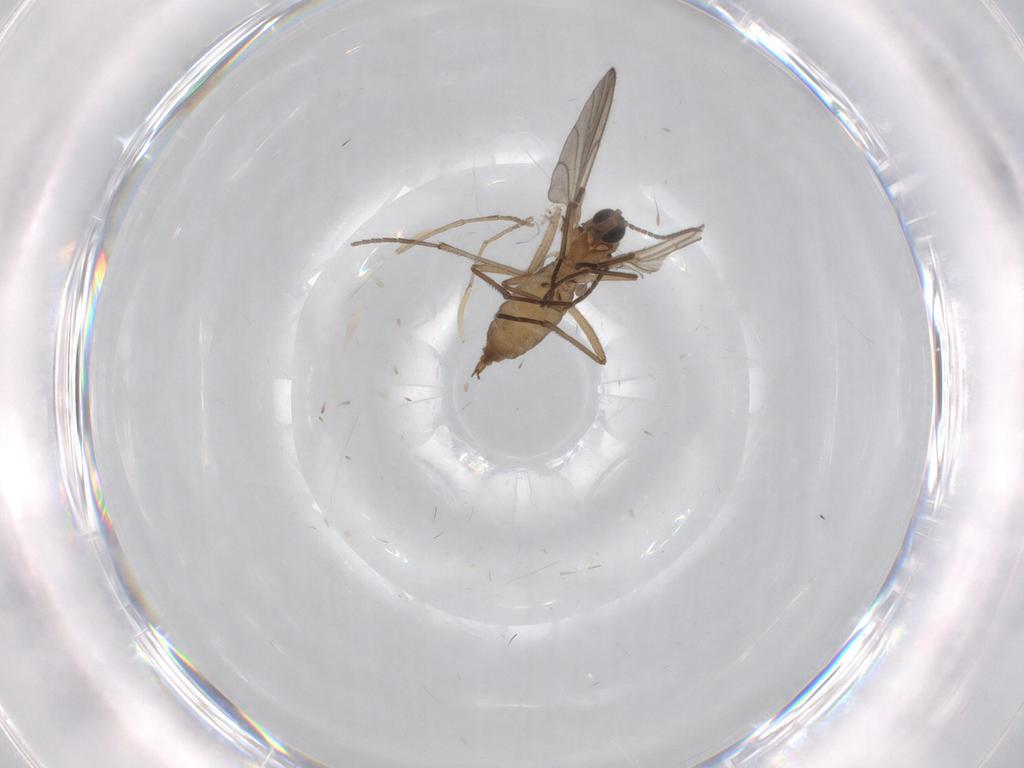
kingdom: Animalia
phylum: Arthropoda
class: Insecta
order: Diptera
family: Sciaridae
